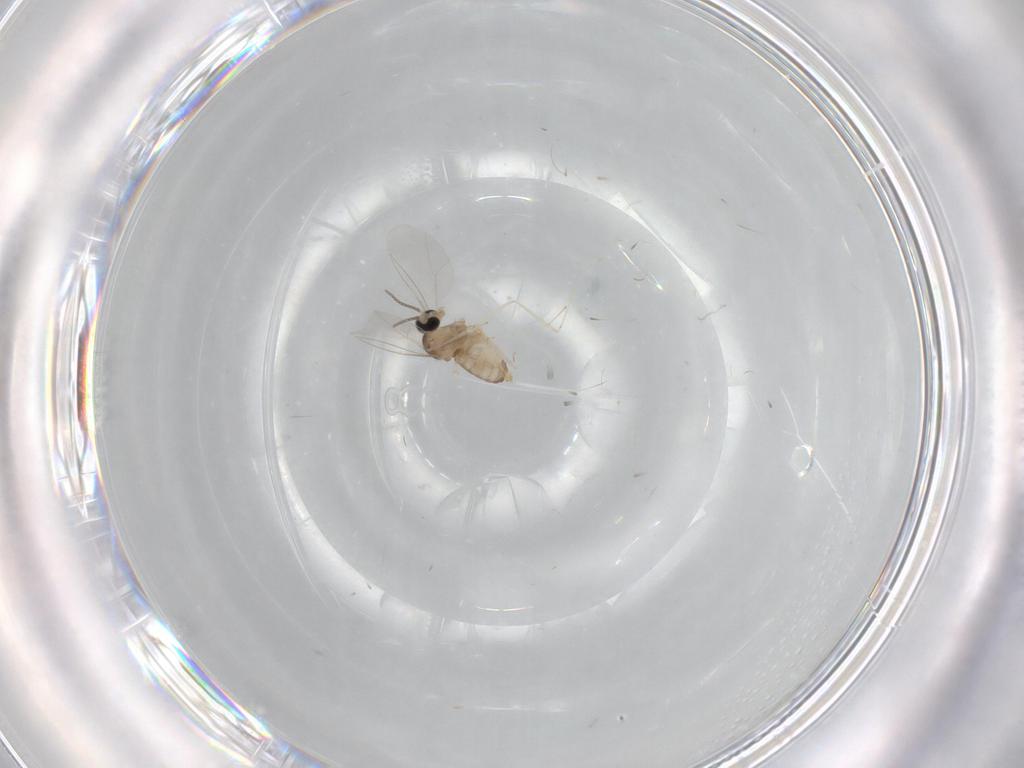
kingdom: Animalia
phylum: Arthropoda
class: Insecta
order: Diptera
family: Cecidomyiidae
